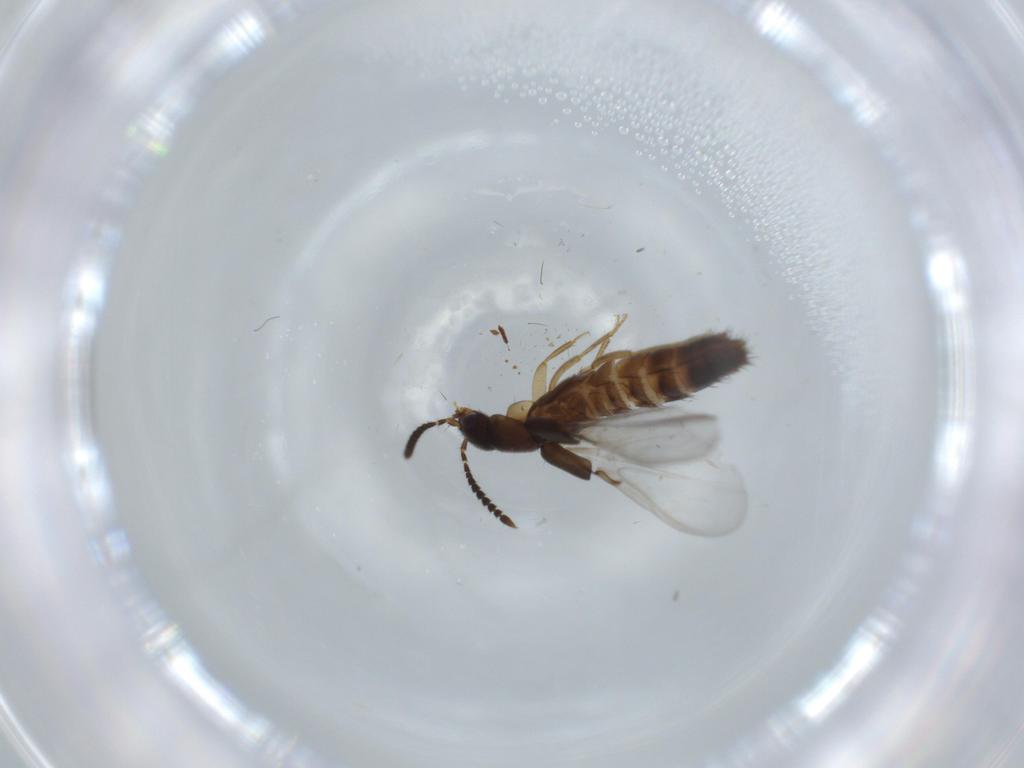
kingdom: Animalia
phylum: Arthropoda
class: Insecta
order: Coleoptera
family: Staphylinidae
